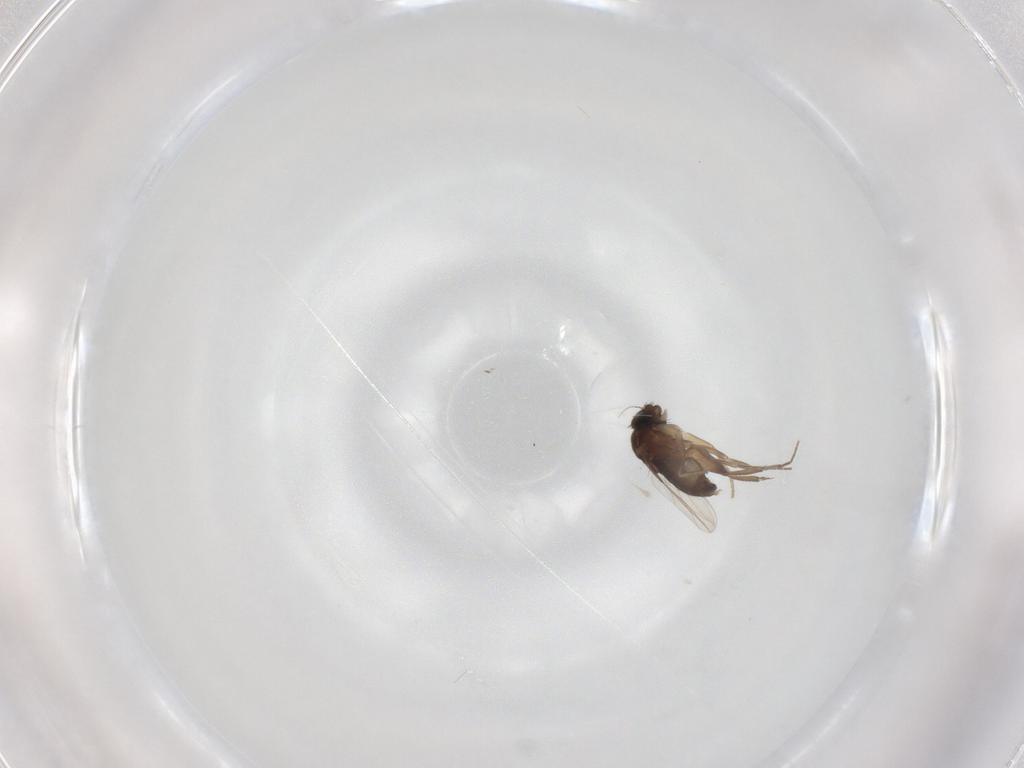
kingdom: Animalia
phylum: Arthropoda
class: Insecta
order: Diptera
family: Phoridae
